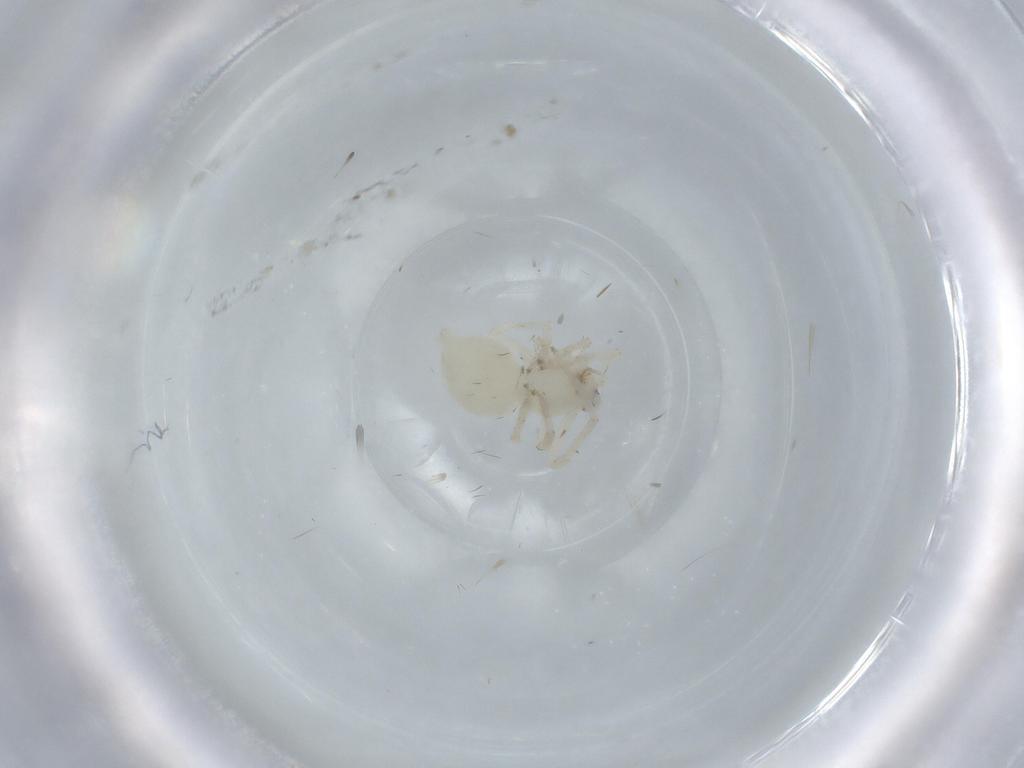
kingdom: Animalia
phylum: Arthropoda
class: Arachnida
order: Araneae
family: Anyphaenidae
